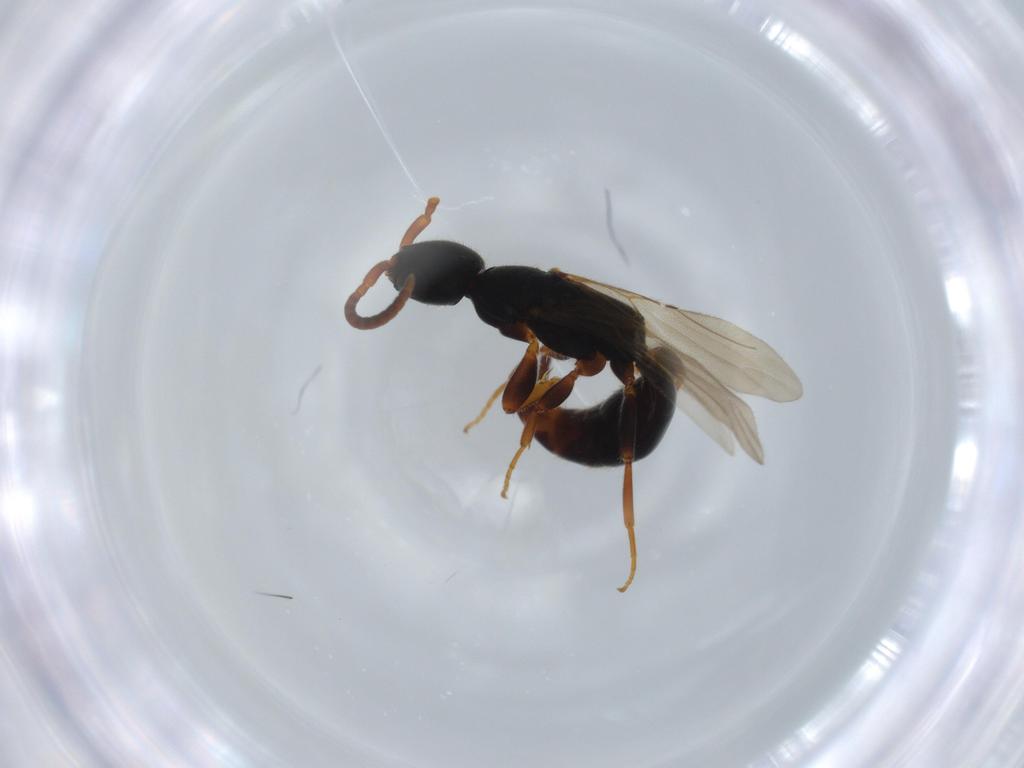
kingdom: Animalia
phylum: Arthropoda
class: Insecta
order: Hymenoptera
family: Bethylidae
